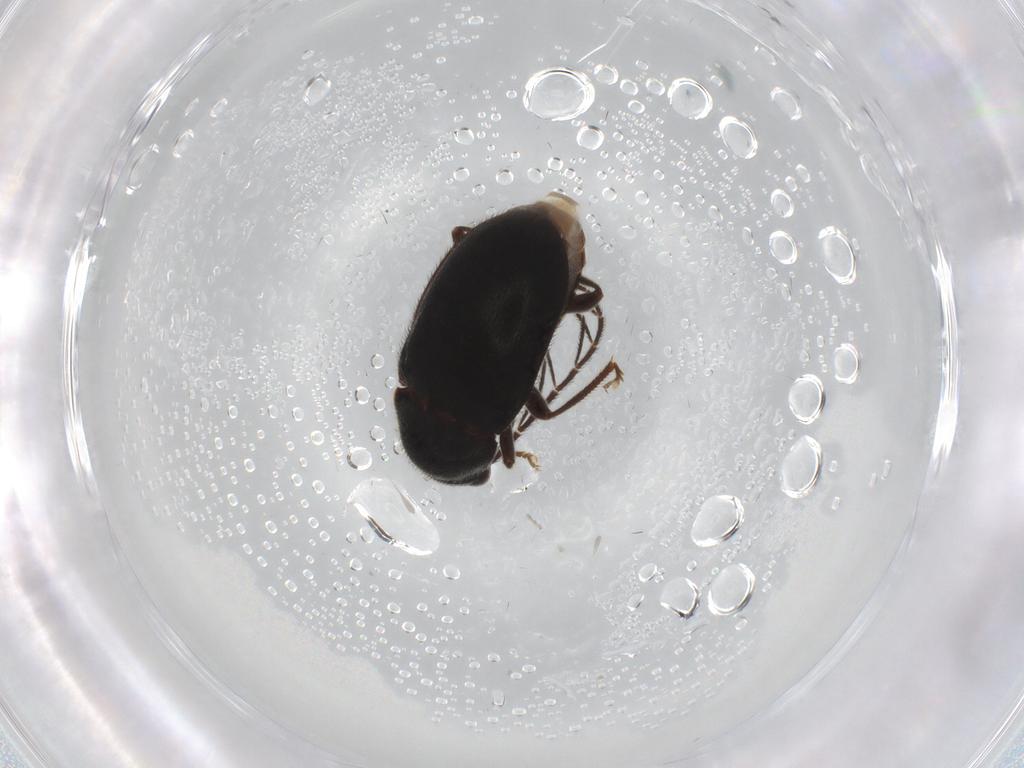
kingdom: Animalia
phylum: Arthropoda
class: Insecta
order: Coleoptera
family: Ptilodactylidae
